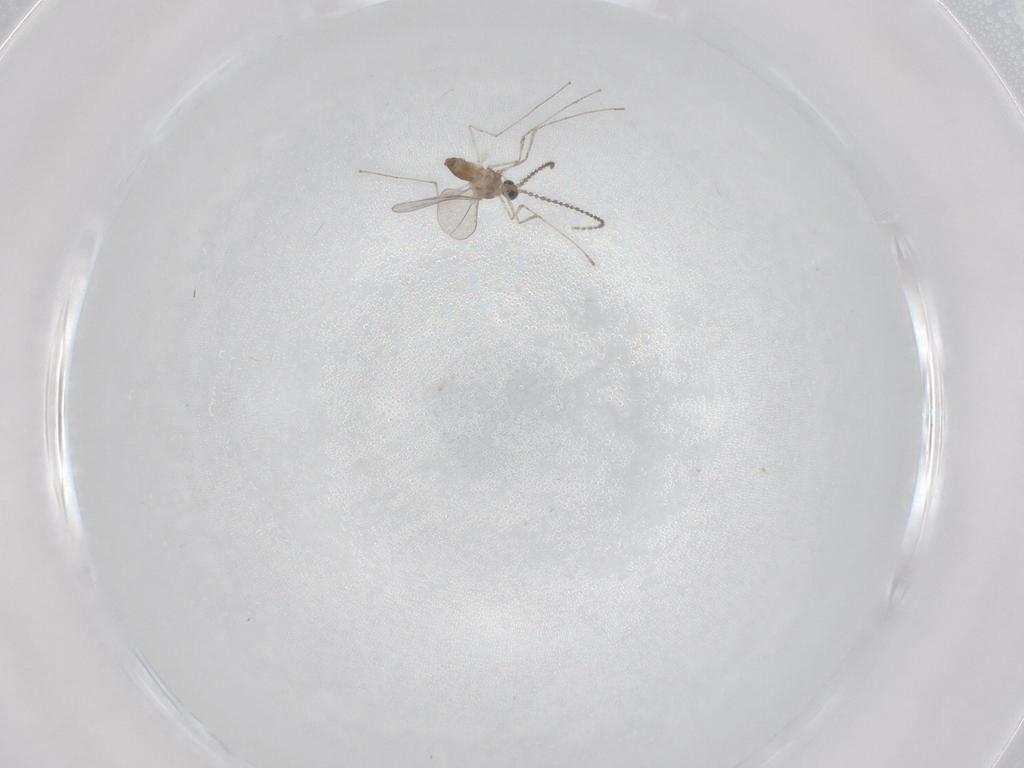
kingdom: Animalia
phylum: Arthropoda
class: Insecta
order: Diptera
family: Cecidomyiidae
